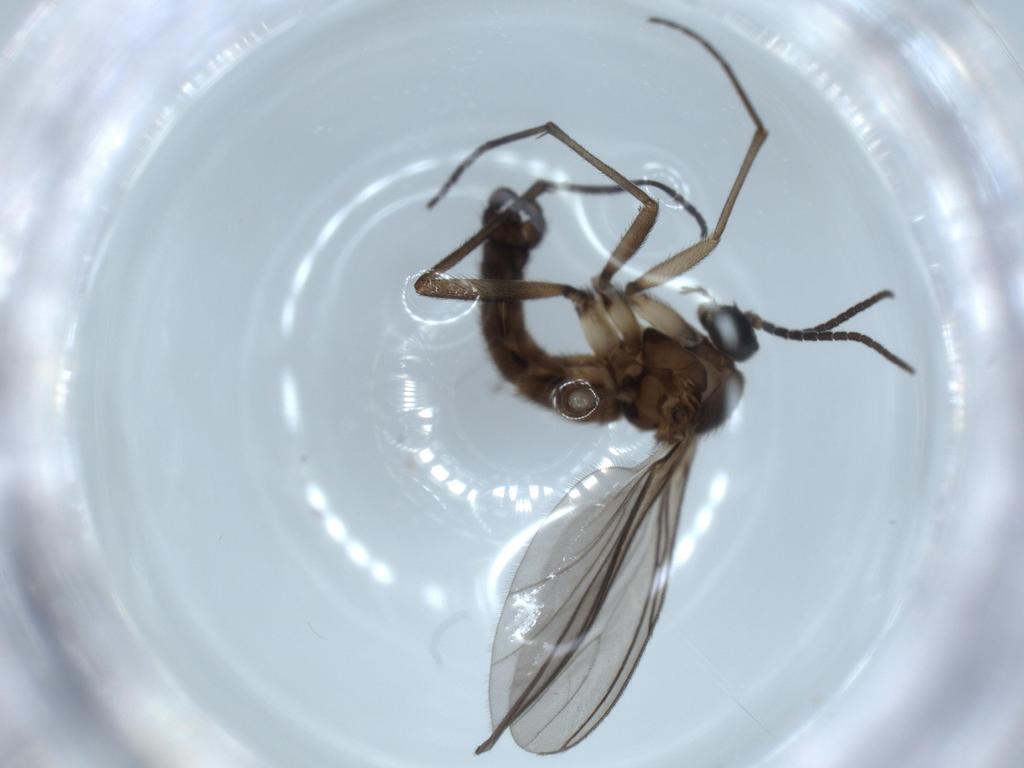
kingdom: Animalia
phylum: Arthropoda
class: Insecta
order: Diptera
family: Sciaridae
